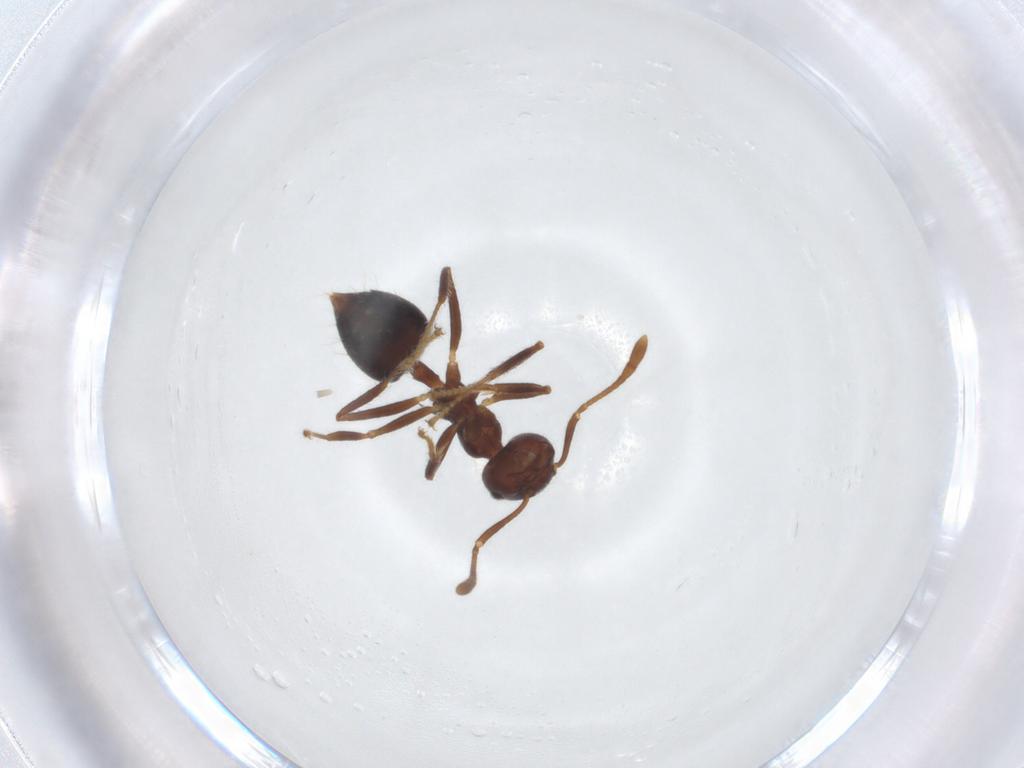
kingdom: Animalia
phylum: Arthropoda
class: Insecta
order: Hymenoptera
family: Formicidae
